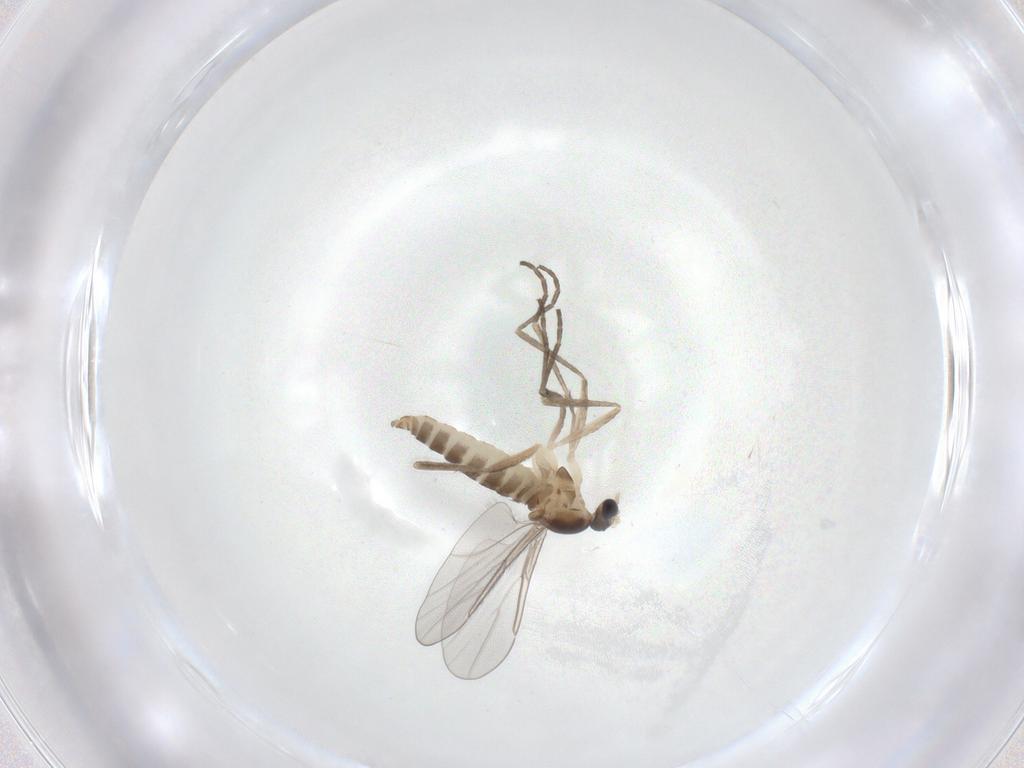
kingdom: Animalia
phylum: Arthropoda
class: Insecta
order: Diptera
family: Cecidomyiidae
